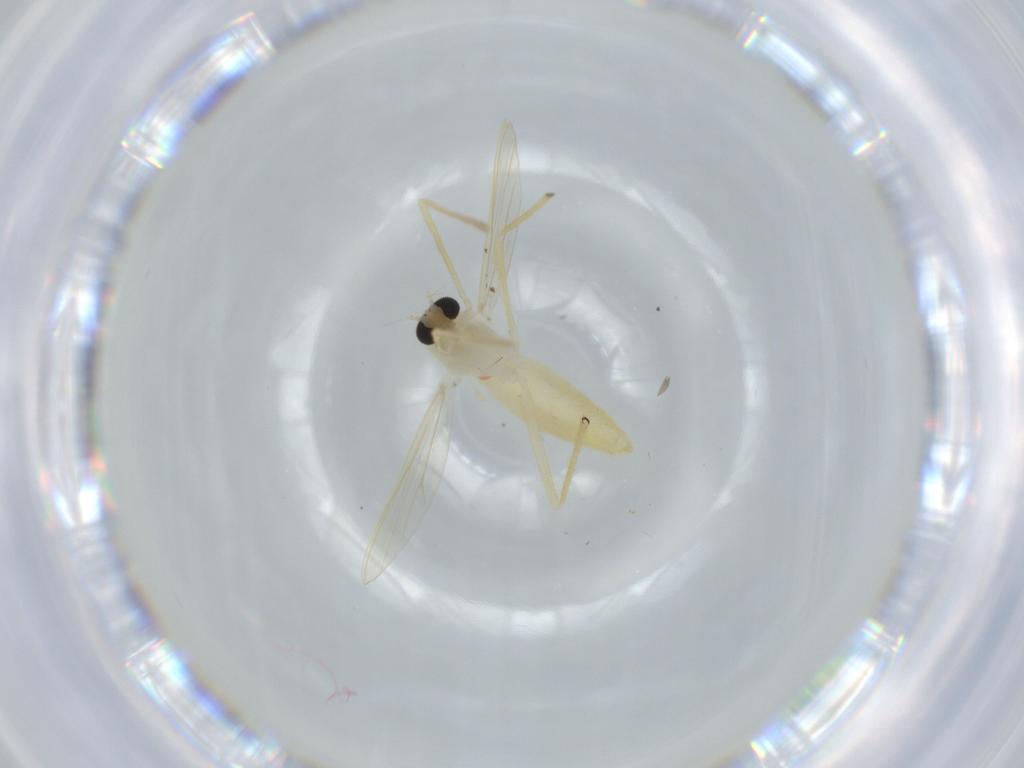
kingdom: Animalia
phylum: Arthropoda
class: Insecta
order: Diptera
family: Chironomidae
